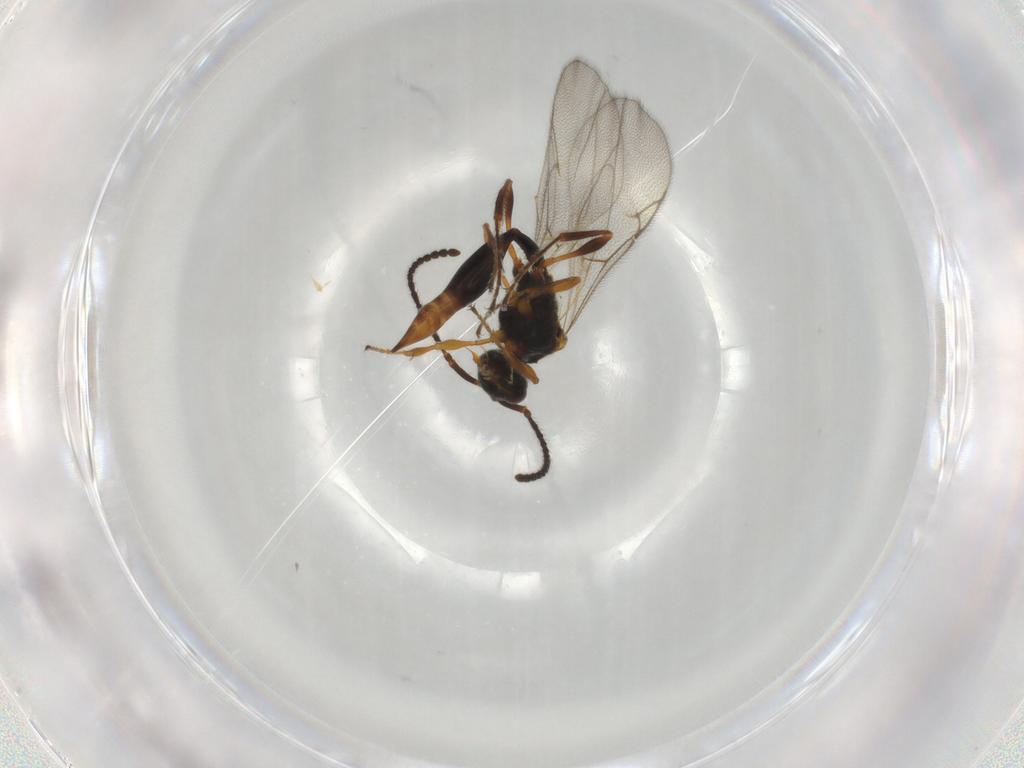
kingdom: Animalia
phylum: Arthropoda
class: Insecta
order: Hymenoptera
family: Diapriidae
